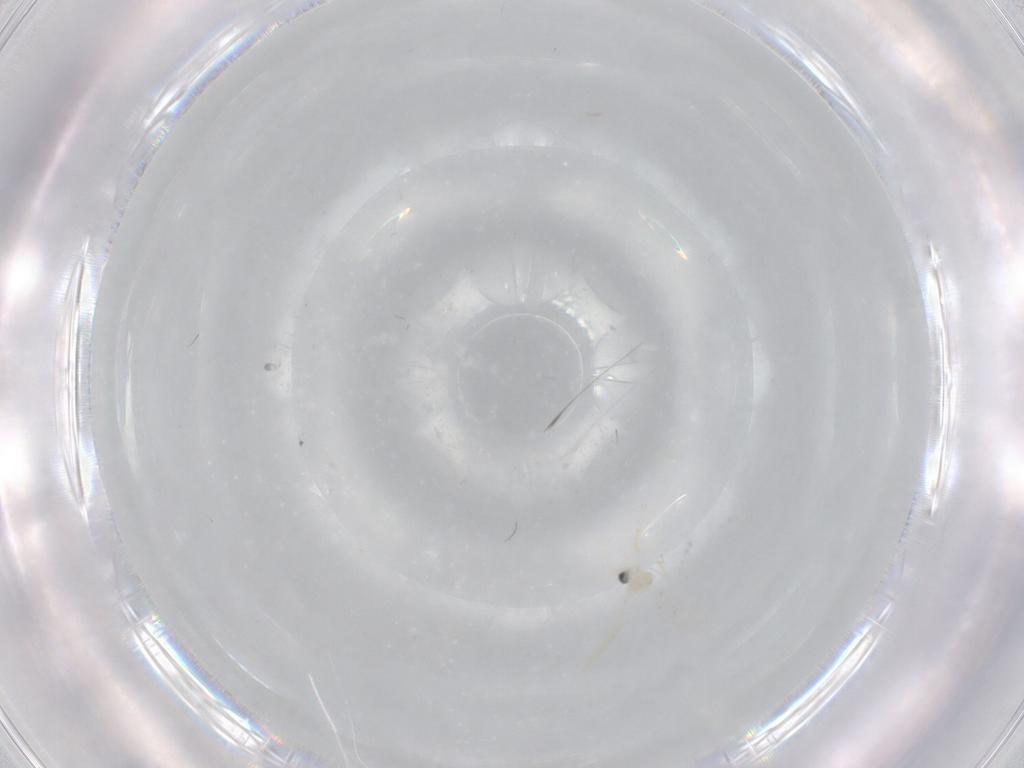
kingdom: Animalia
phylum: Arthropoda
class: Insecta
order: Diptera
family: Cecidomyiidae
